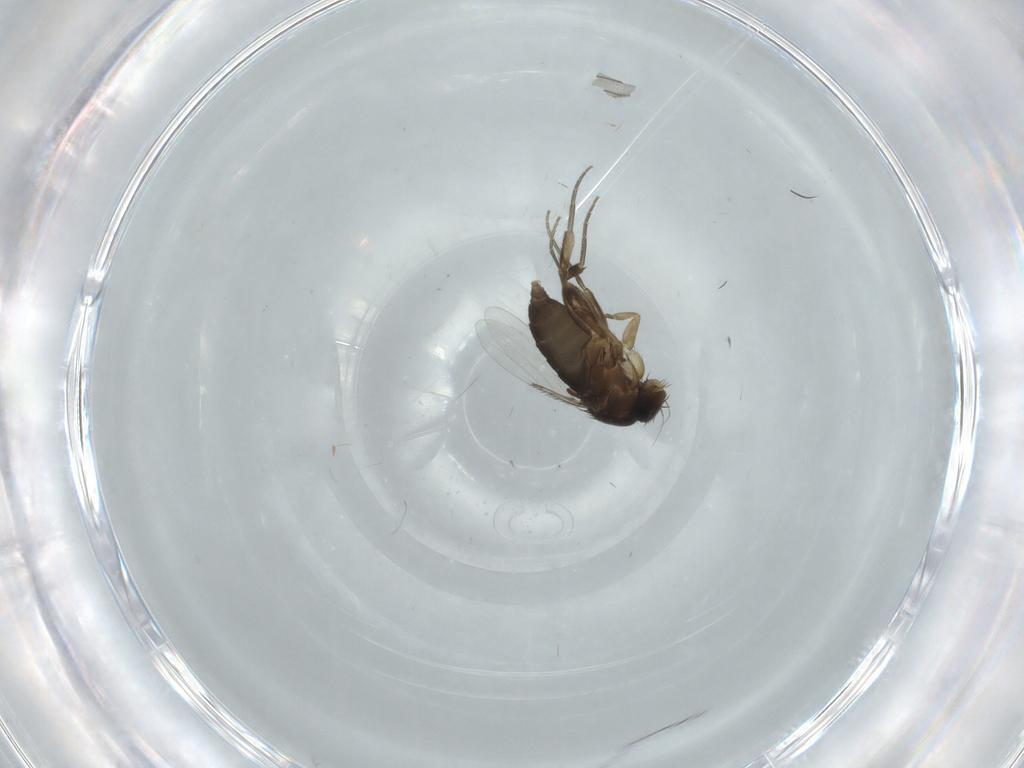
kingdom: Animalia
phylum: Arthropoda
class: Insecta
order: Diptera
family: Phoridae
